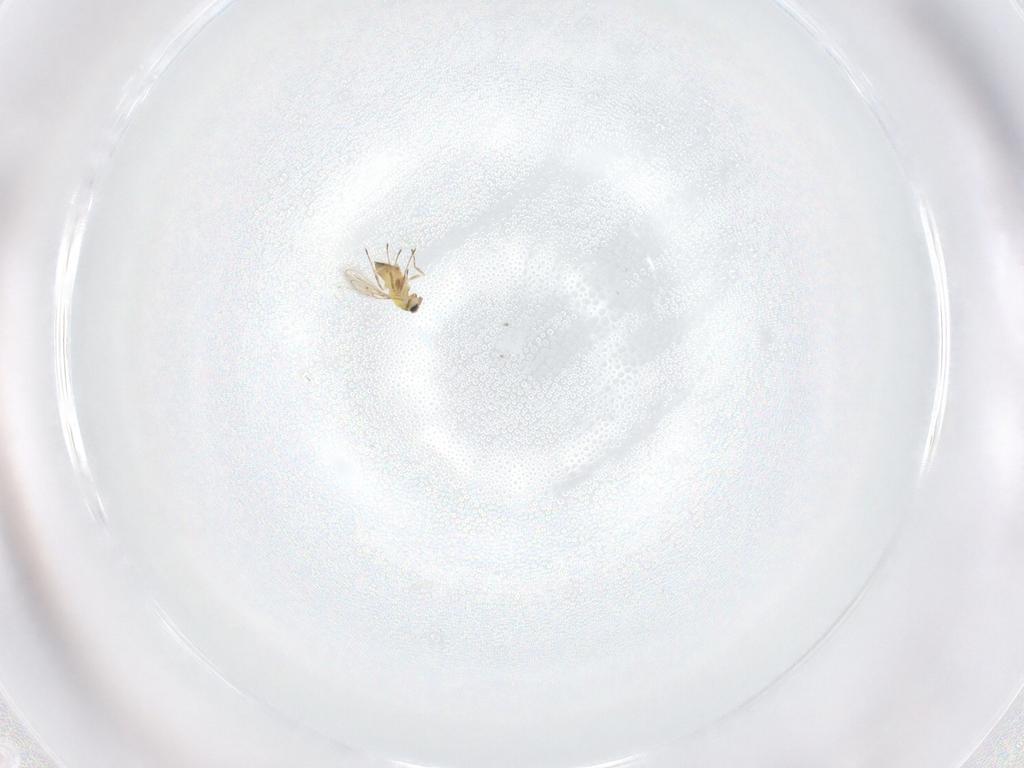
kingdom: Animalia
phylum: Arthropoda
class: Insecta
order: Hymenoptera
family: Trichogrammatidae
